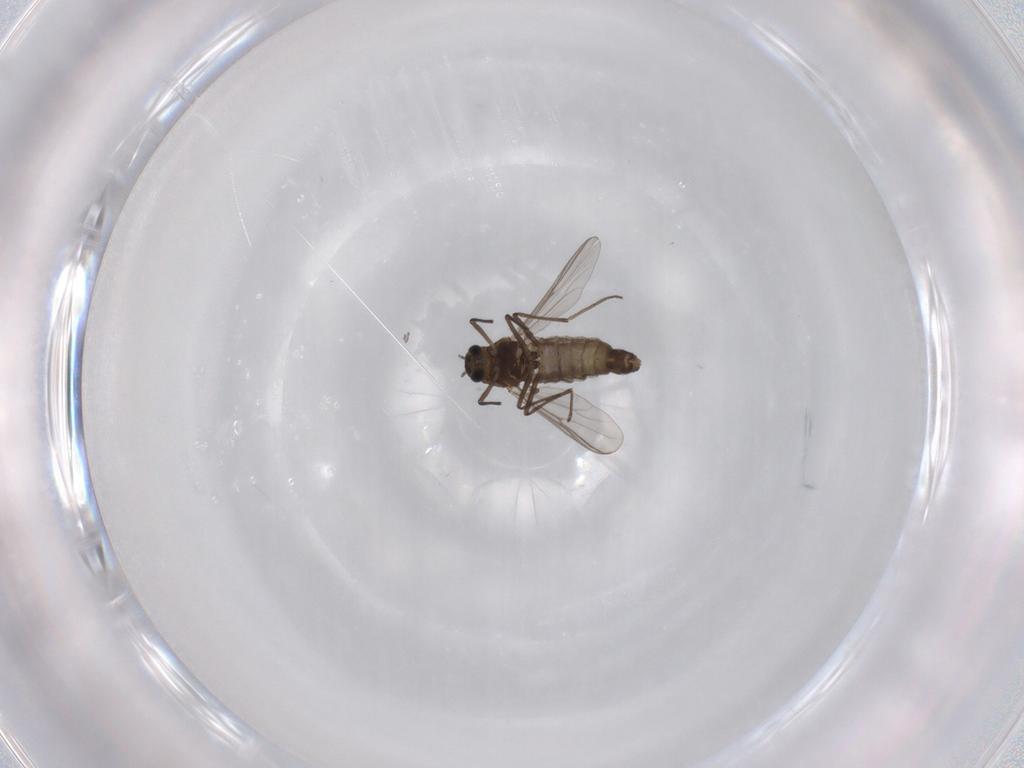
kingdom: Animalia
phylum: Arthropoda
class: Insecta
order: Diptera
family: Chironomidae
